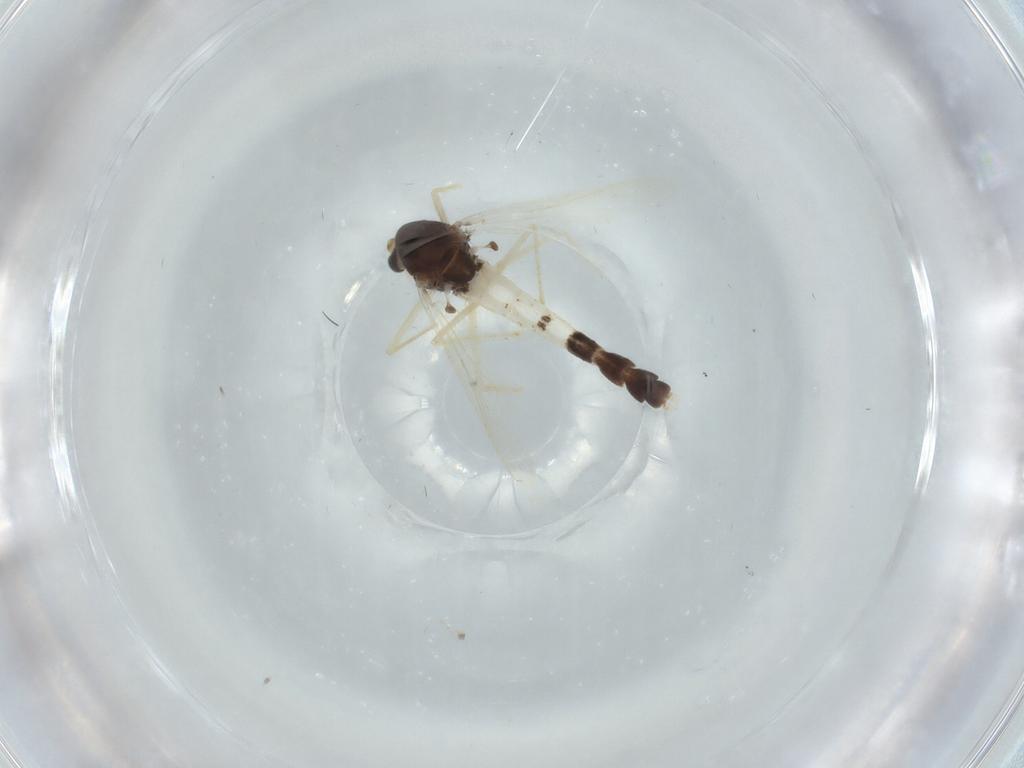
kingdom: Animalia
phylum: Arthropoda
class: Insecta
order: Diptera
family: Chironomidae
